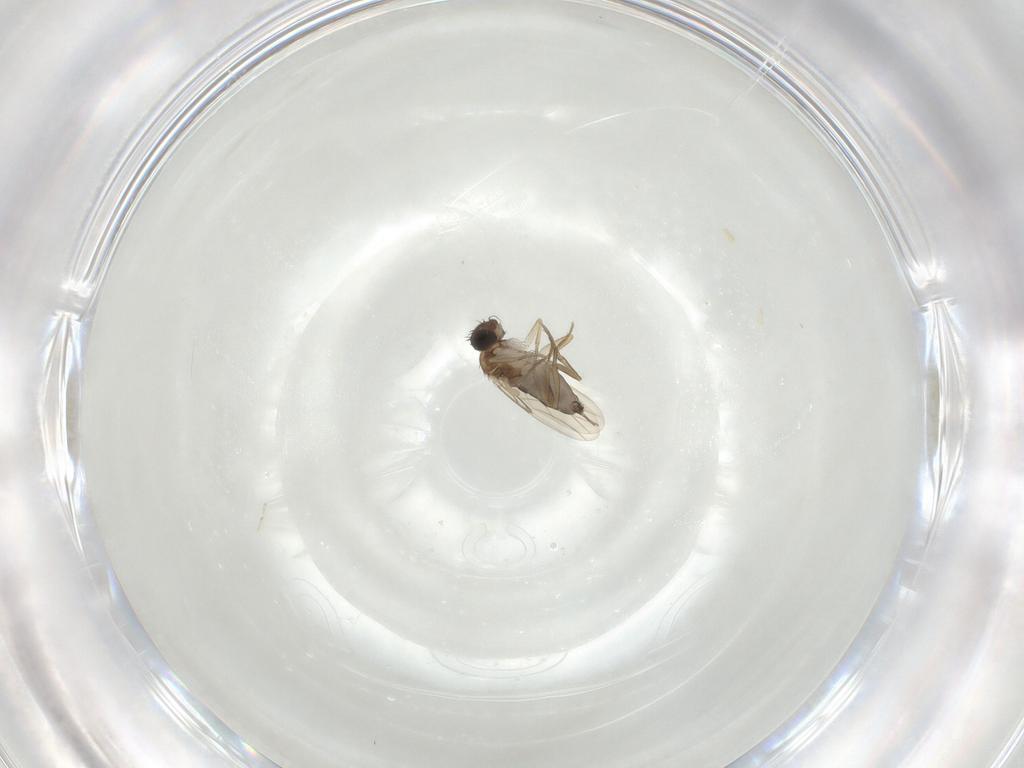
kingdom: Animalia
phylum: Arthropoda
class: Insecta
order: Diptera
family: Phoridae
